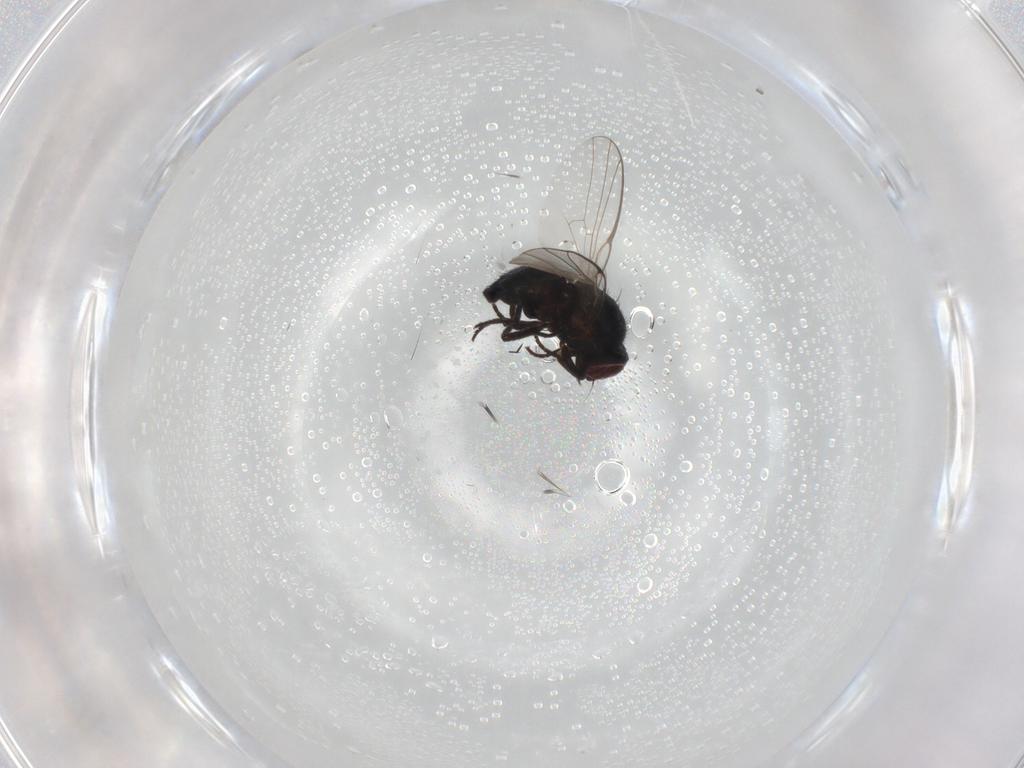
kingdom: Animalia
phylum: Arthropoda
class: Insecta
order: Diptera
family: Agromyzidae
